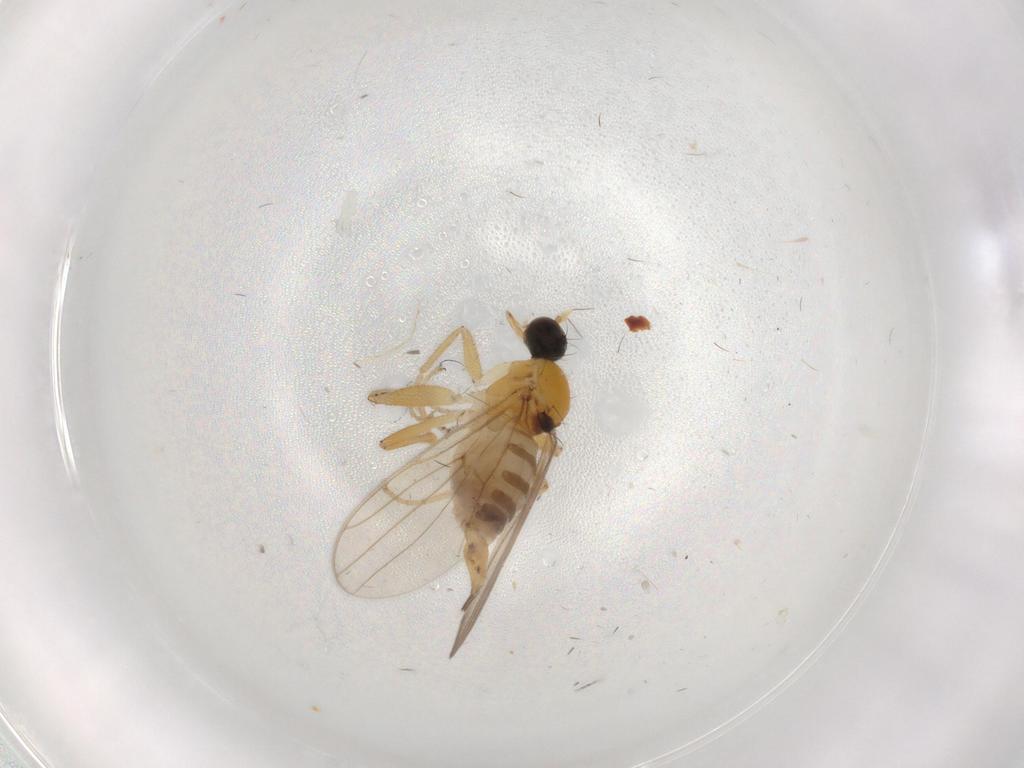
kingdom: Animalia
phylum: Arthropoda
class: Insecta
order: Diptera
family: Hybotidae
